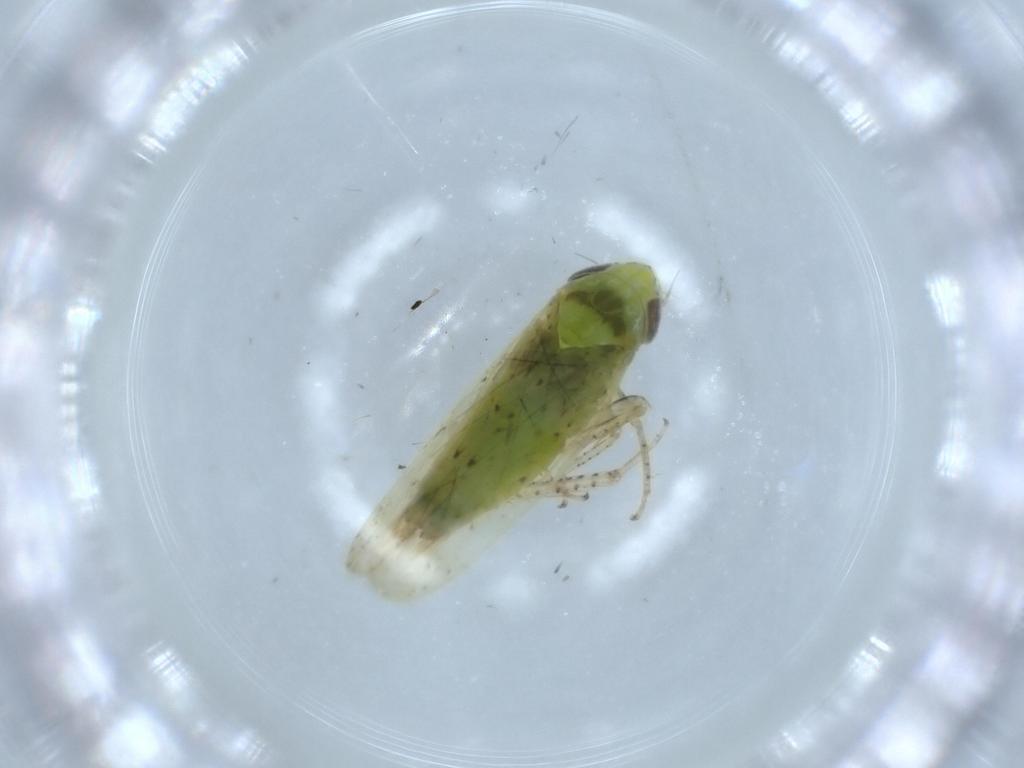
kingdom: Animalia
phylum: Arthropoda
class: Insecta
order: Hemiptera
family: Cicadellidae
